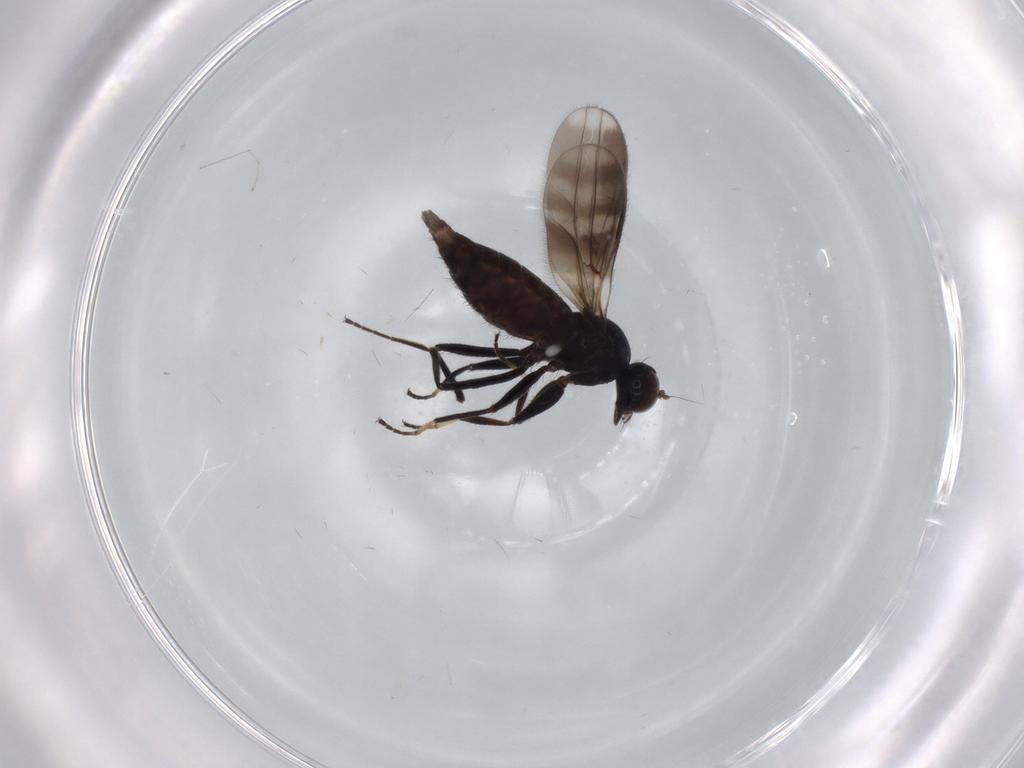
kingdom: Animalia
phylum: Arthropoda
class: Insecta
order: Diptera
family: Hybotidae
